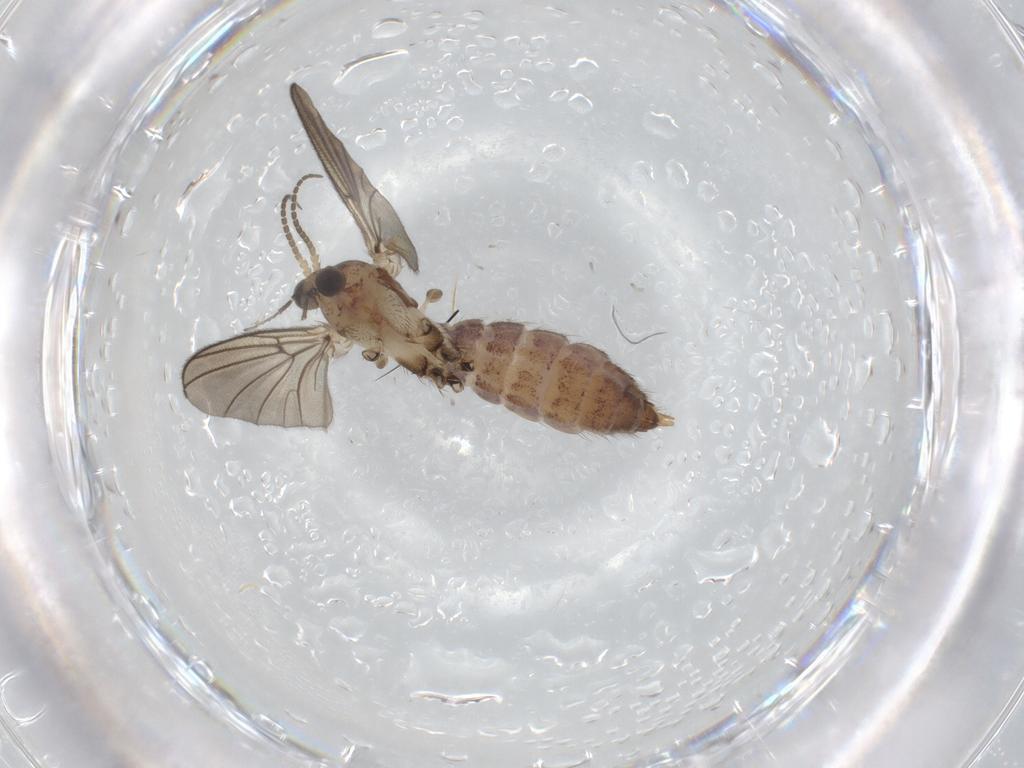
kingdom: Animalia
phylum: Arthropoda
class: Insecta
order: Diptera
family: Mycetophilidae
